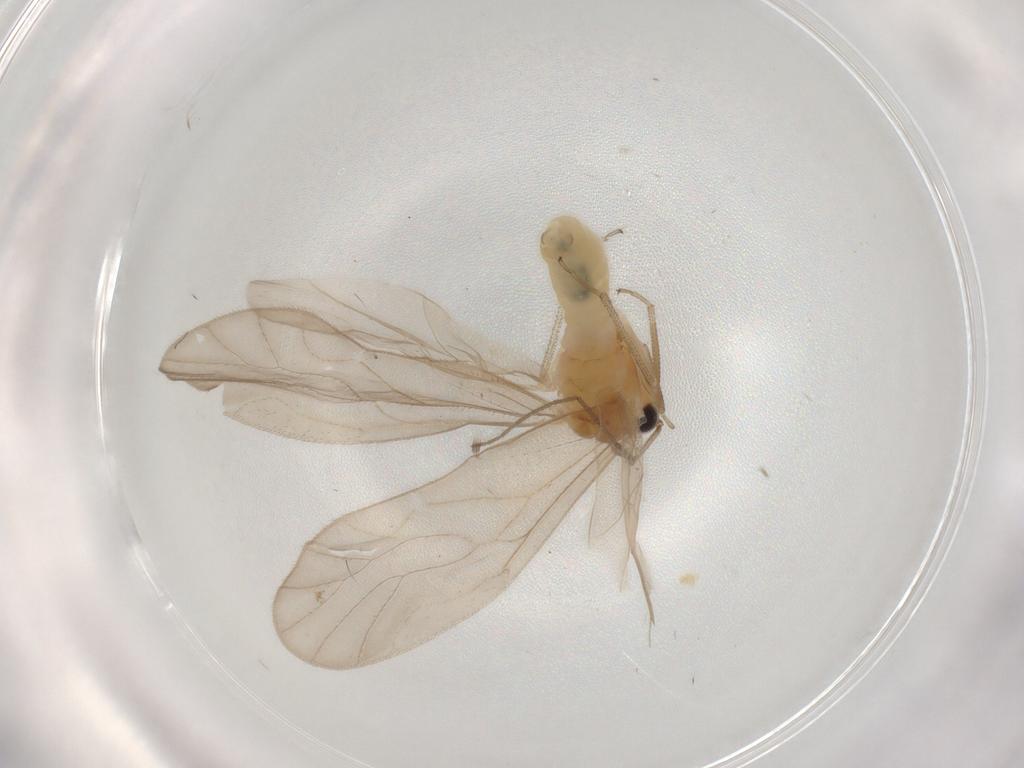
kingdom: Animalia
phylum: Arthropoda
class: Insecta
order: Psocodea
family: Caeciliusidae
